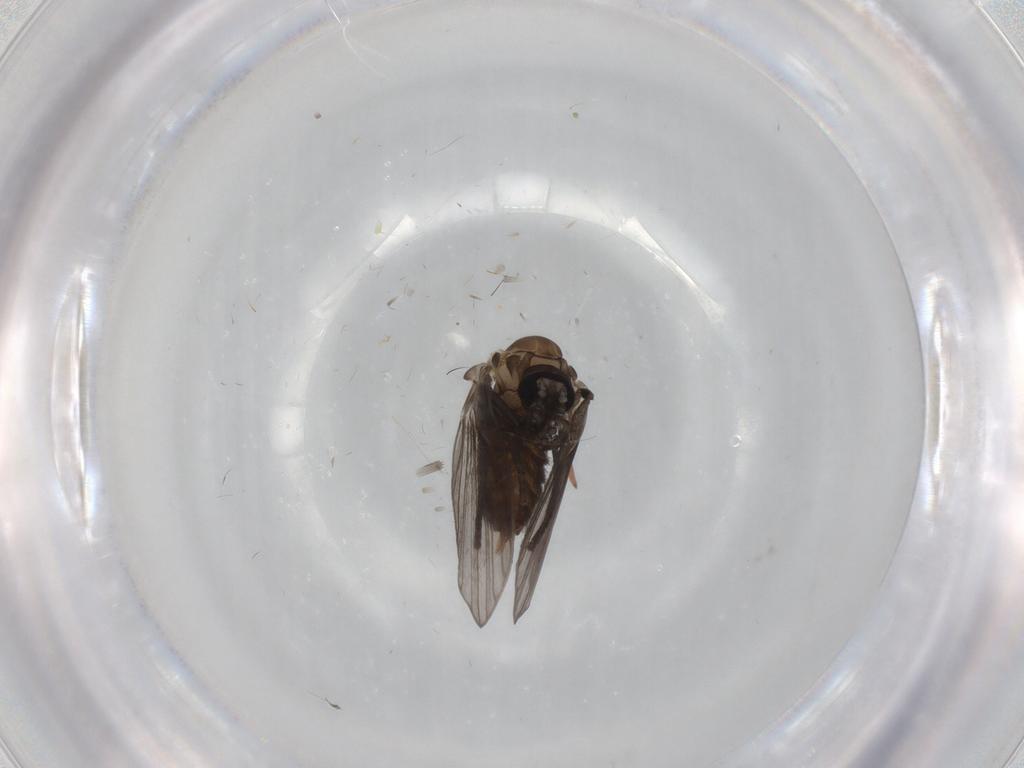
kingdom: Animalia
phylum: Arthropoda
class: Insecta
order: Diptera
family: Psychodidae
